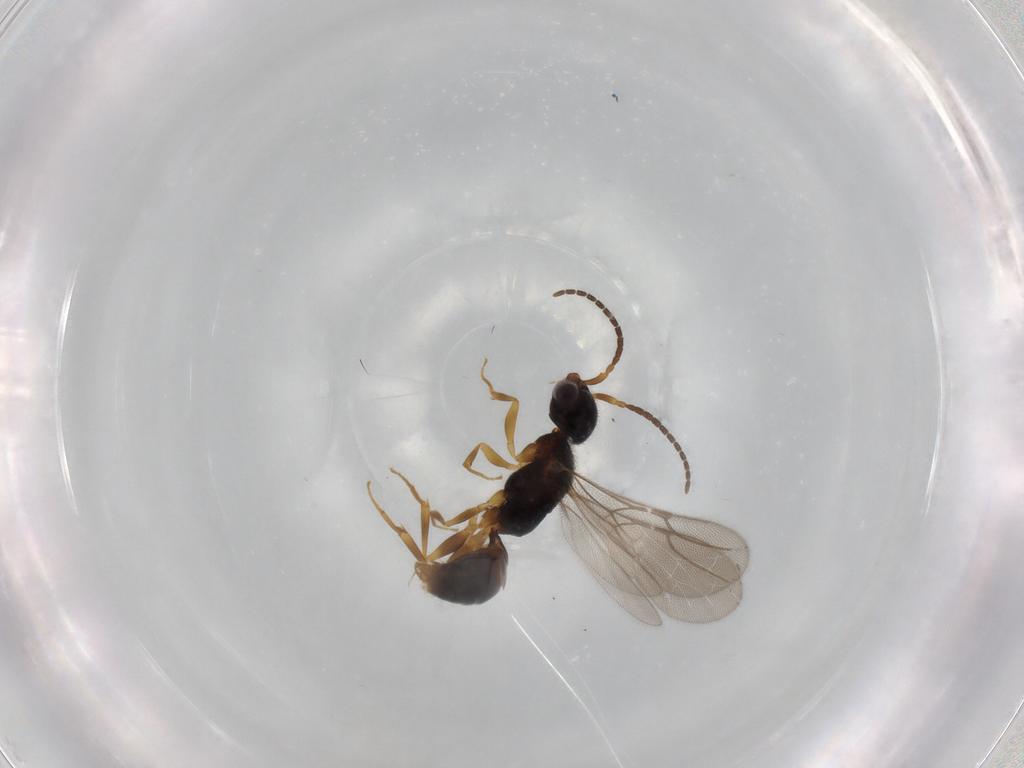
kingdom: Animalia
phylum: Arthropoda
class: Insecta
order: Hymenoptera
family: Bethylidae
